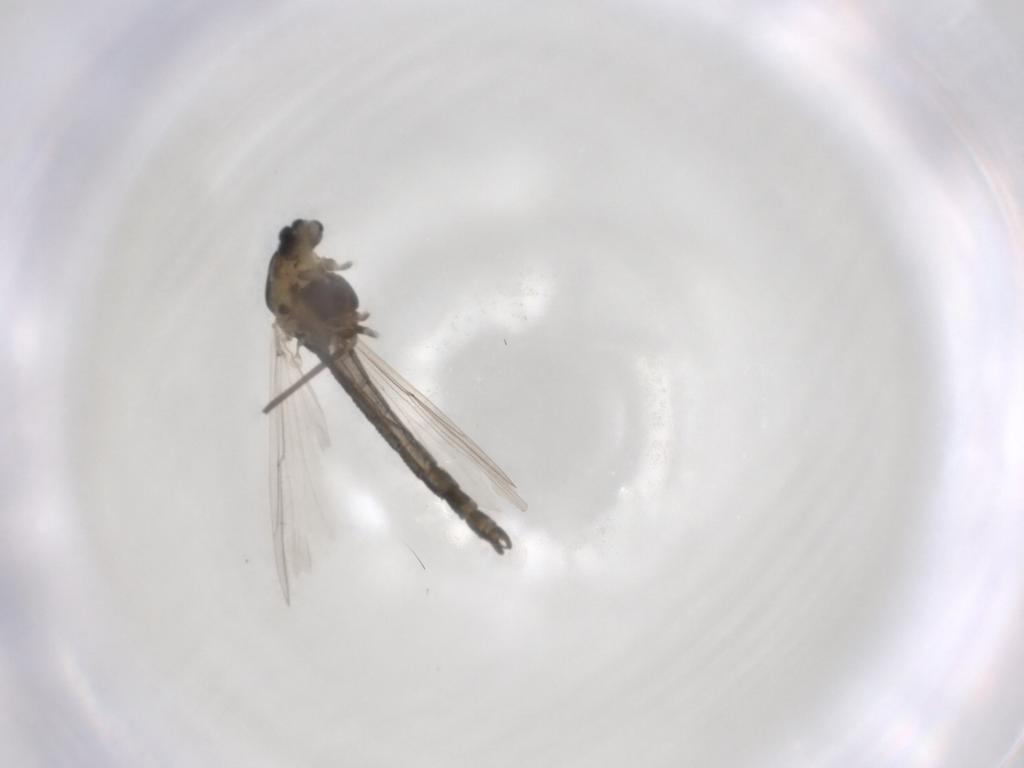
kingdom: Animalia
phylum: Arthropoda
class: Insecta
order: Diptera
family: Chironomidae
